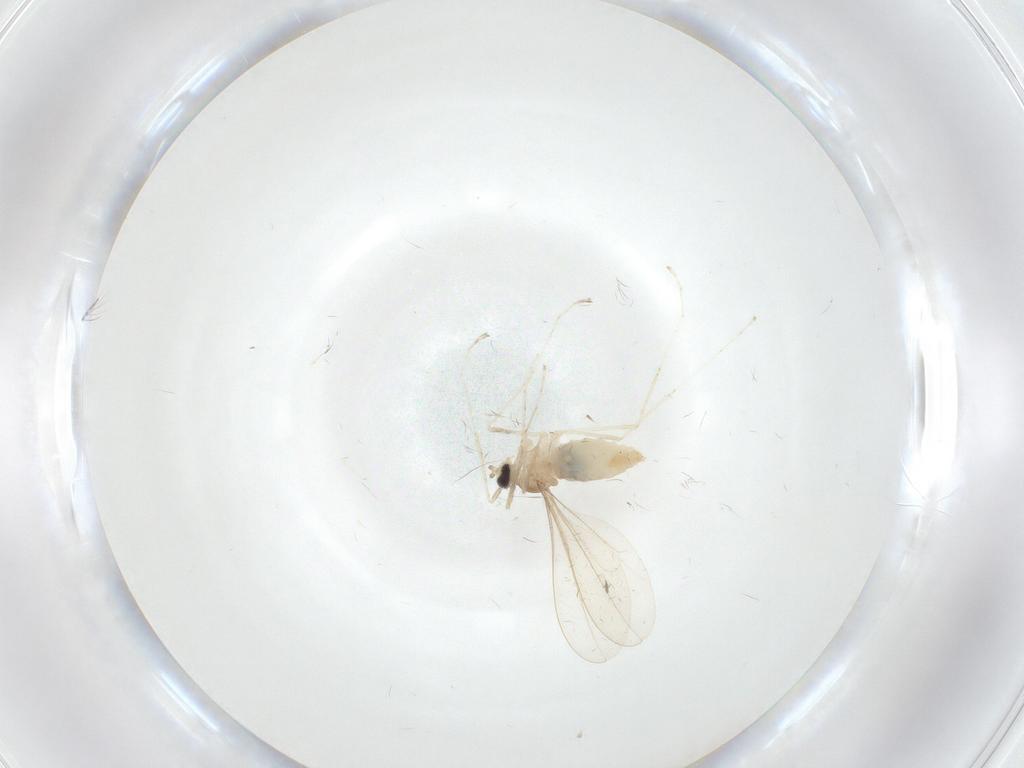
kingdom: Animalia
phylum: Arthropoda
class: Insecta
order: Diptera
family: Cecidomyiidae
